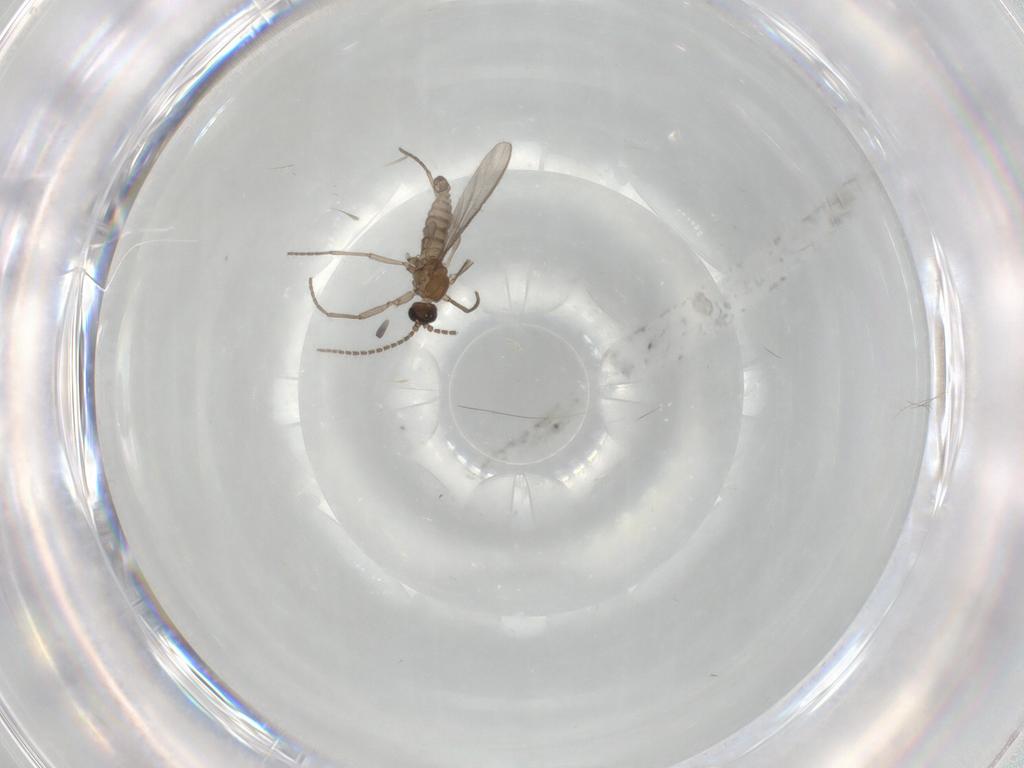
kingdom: Animalia
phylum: Arthropoda
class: Insecta
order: Diptera
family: Sciaridae
